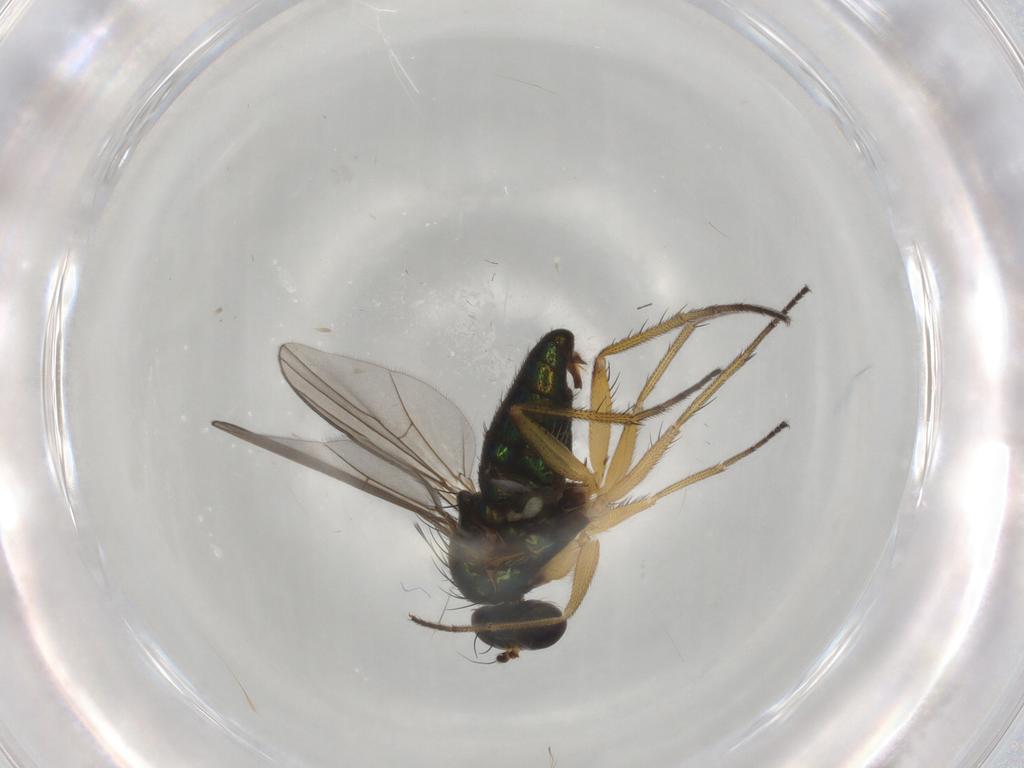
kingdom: Animalia
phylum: Arthropoda
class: Insecta
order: Diptera
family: Dolichopodidae
